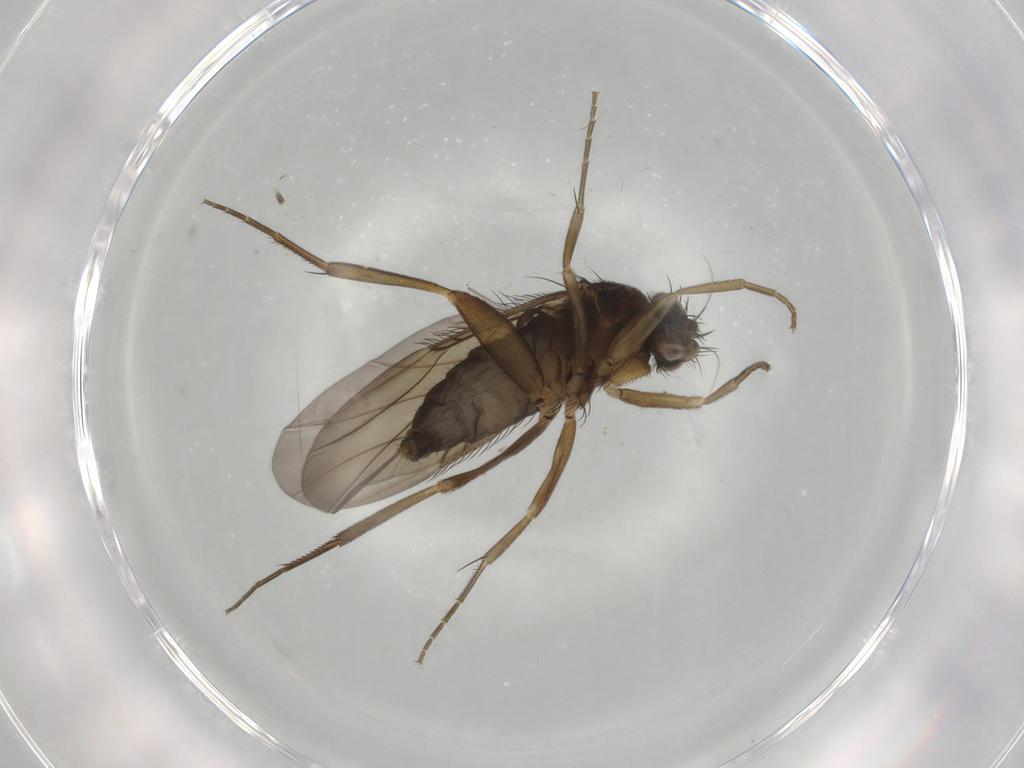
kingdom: Animalia
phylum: Arthropoda
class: Insecta
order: Diptera
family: Phoridae
